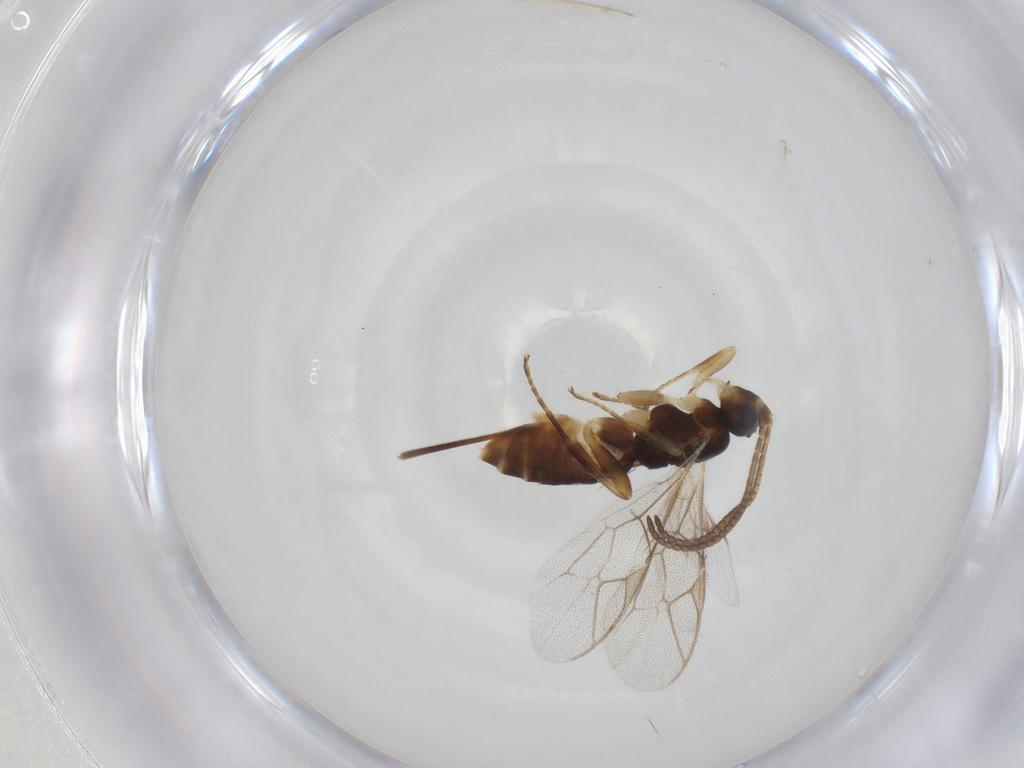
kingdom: Animalia
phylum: Arthropoda
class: Insecta
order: Hymenoptera
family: Ichneumonidae
